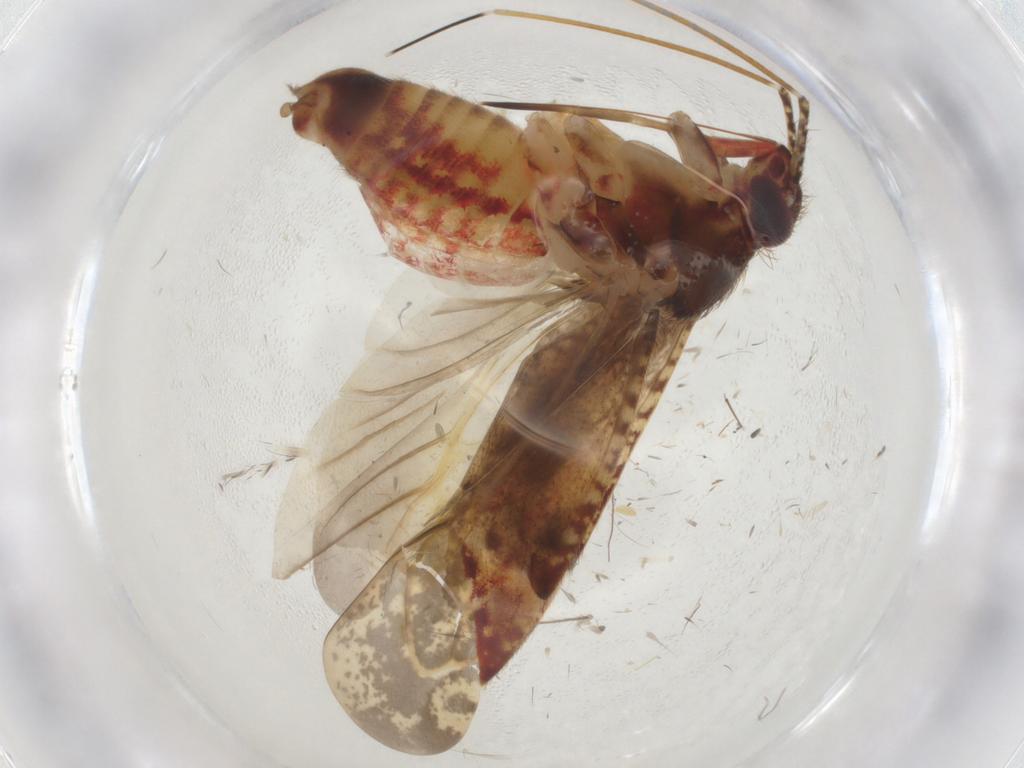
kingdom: Animalia
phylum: Arthropoda
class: Insecta
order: Hemiptera
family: Miridae
